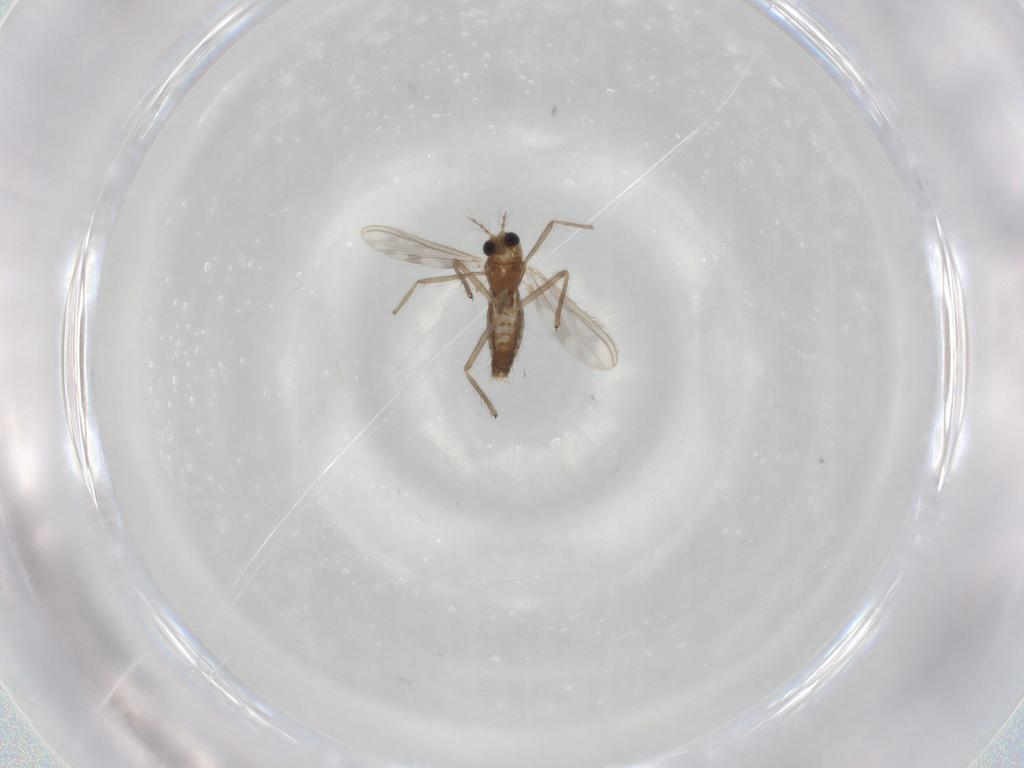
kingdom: Animalia
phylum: Arthropoda
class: Insecta
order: Diptera
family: Chironomidae
